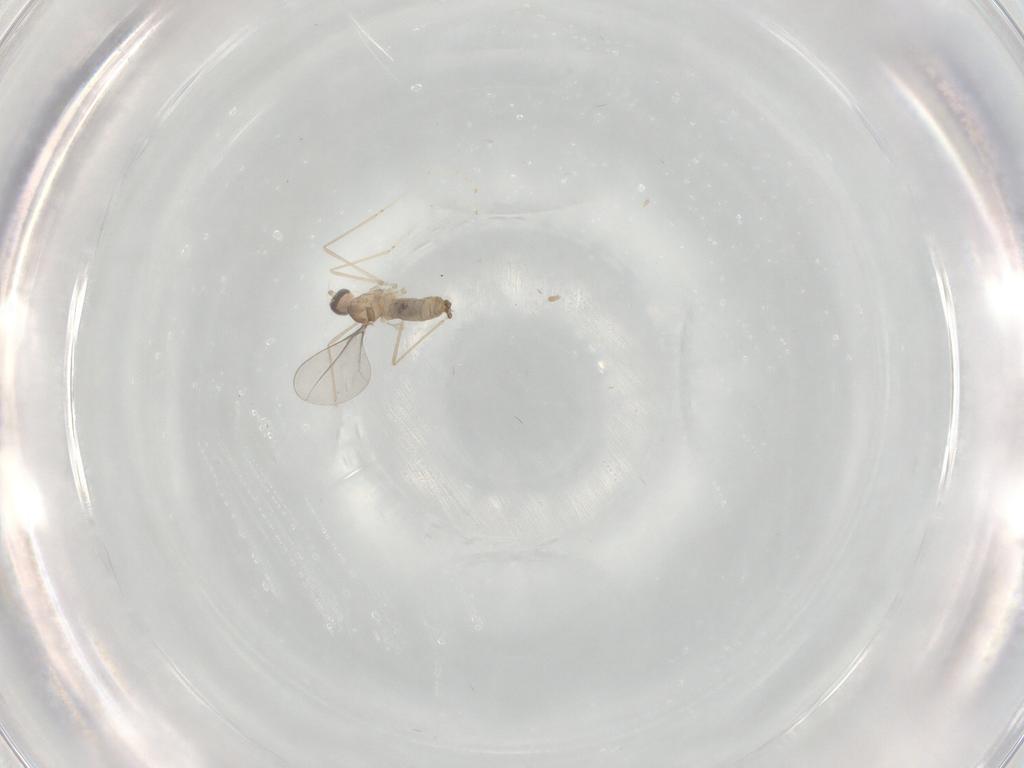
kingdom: Animalia
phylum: Arthropoda
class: Insecta
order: Diptera
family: Cecidomyiidae
